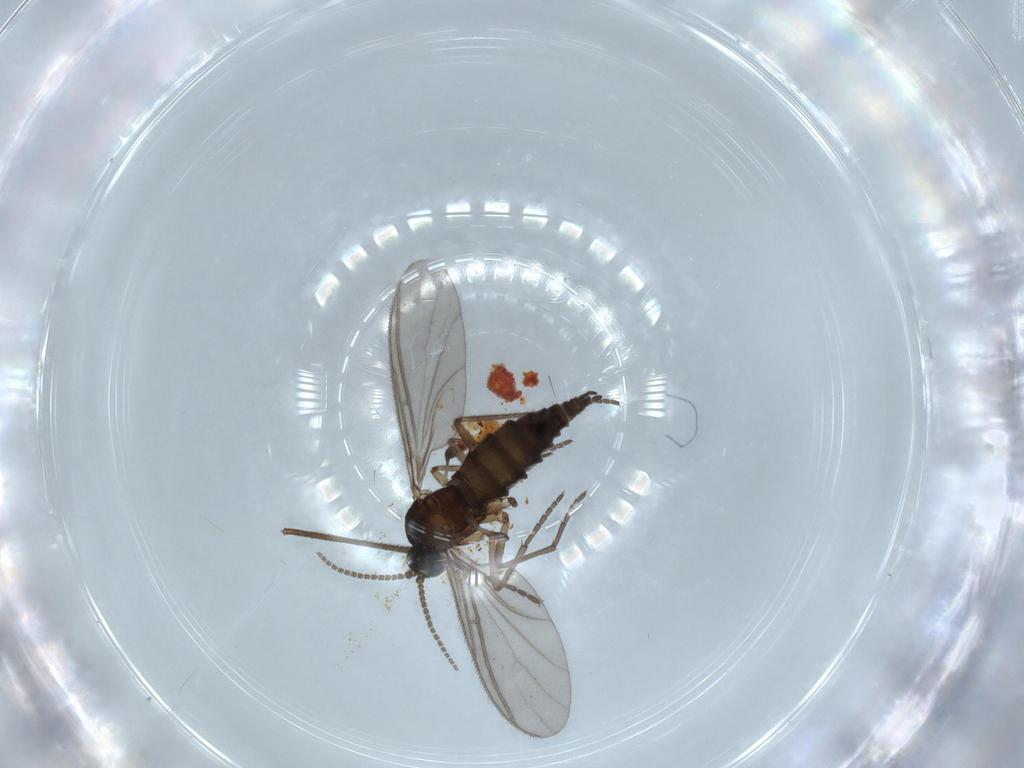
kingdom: Animalia
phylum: Arthropoda
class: Insecta
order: Diptera
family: Sciaridae
